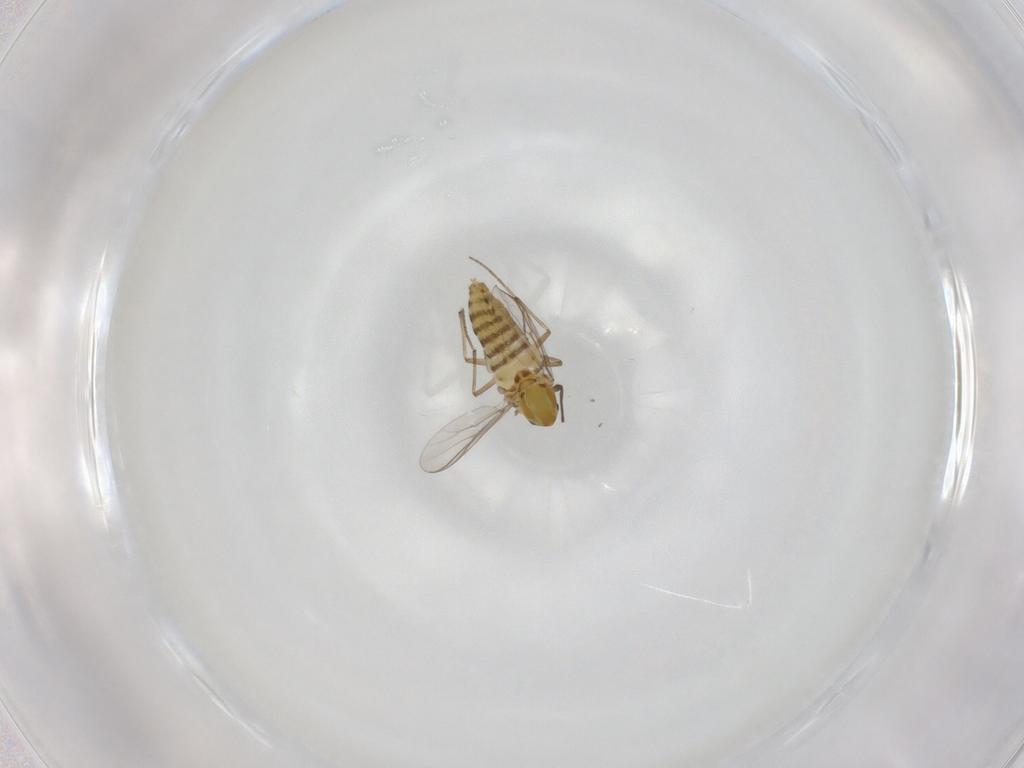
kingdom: Animalia
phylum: Arthropoda
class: Insecta
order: Diptera
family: Chironomidae
